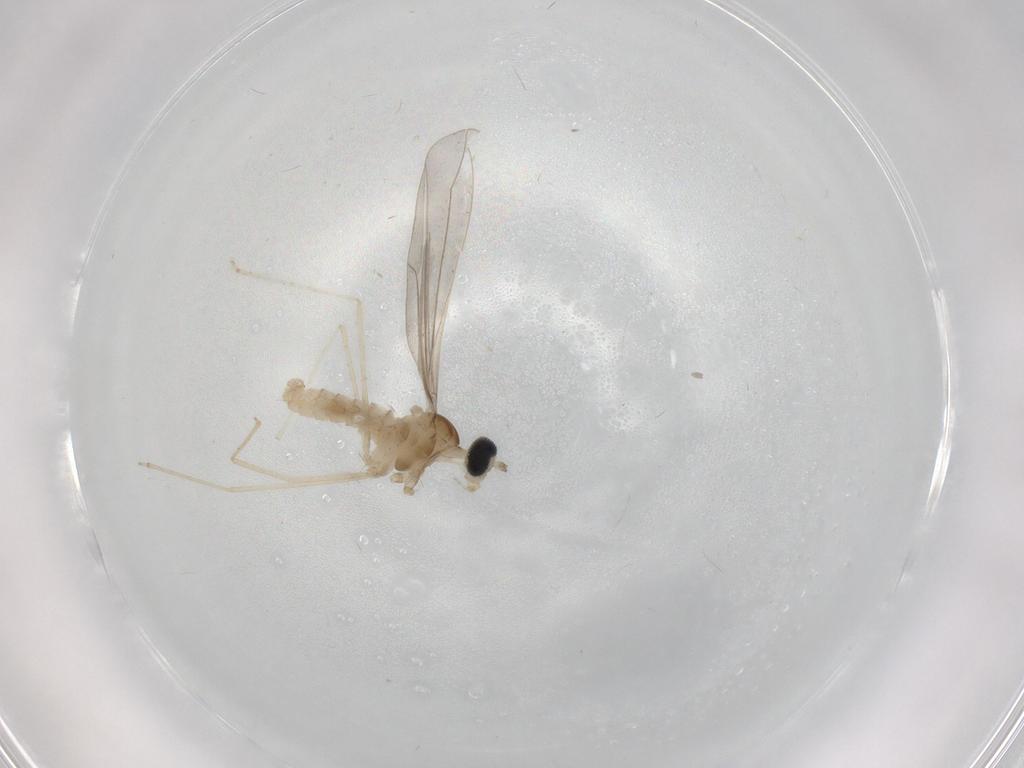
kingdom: Animalia
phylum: Arthropoda
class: Insecta
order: Diptera
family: Cecidomyiidae
